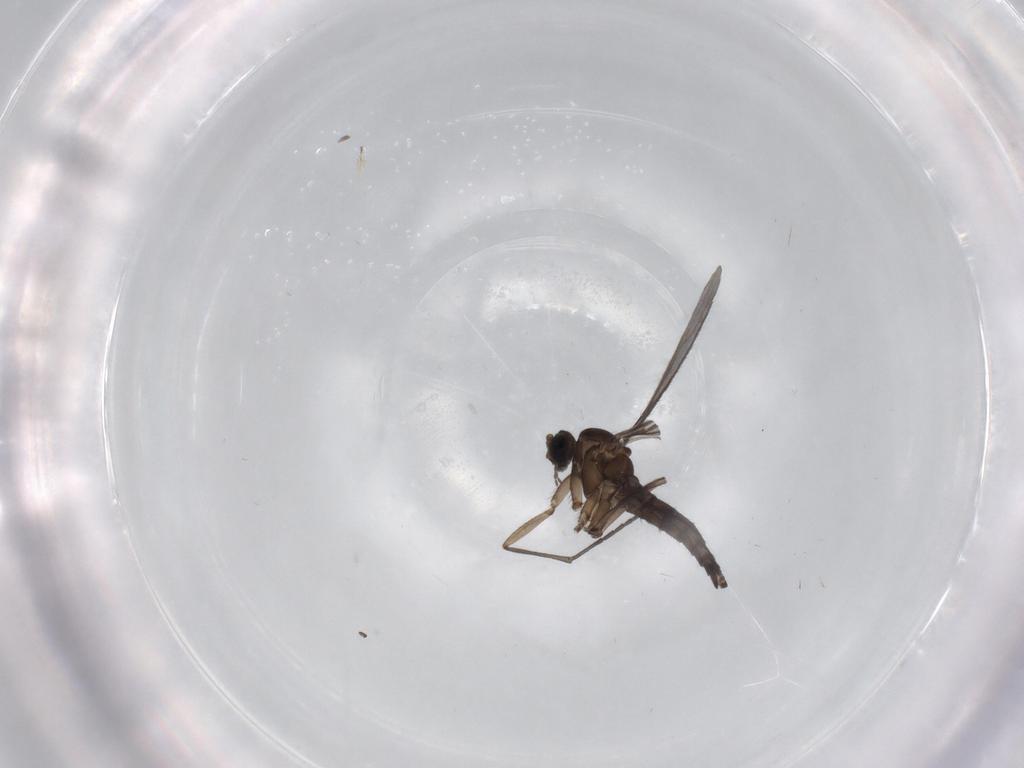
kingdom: Animalia
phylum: Arthropoda
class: Insecta
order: Diptera
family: Sciaridae
